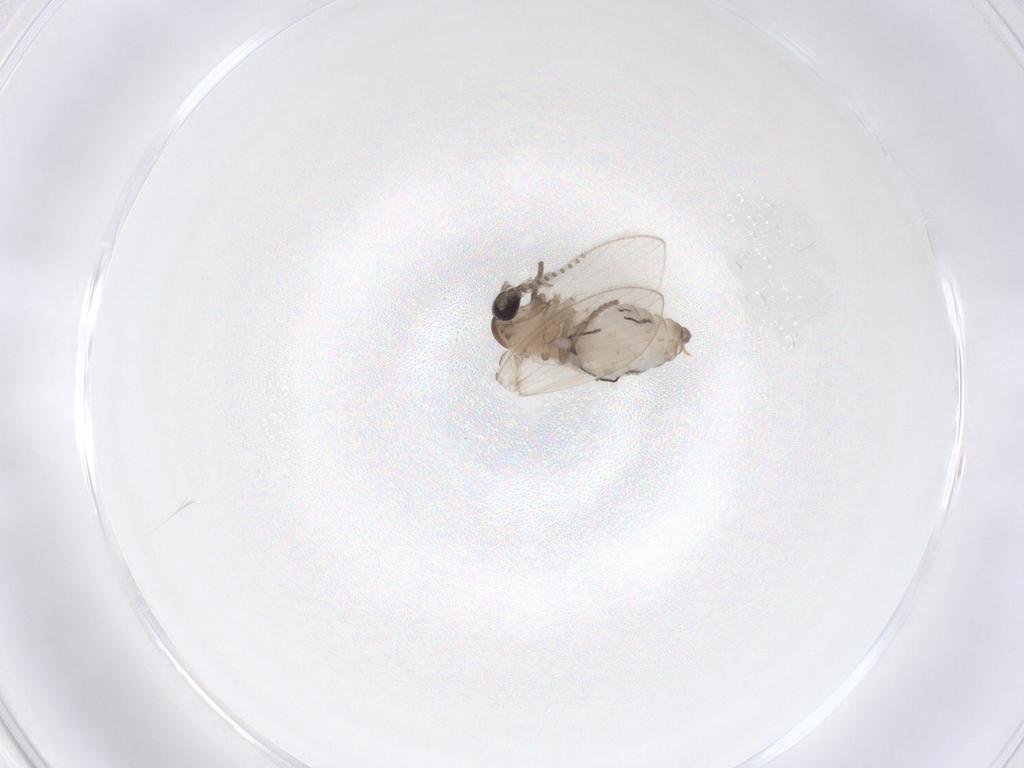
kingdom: Animalia
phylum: Arthropoda
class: Insecta
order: Diptera
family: Psychodidae
